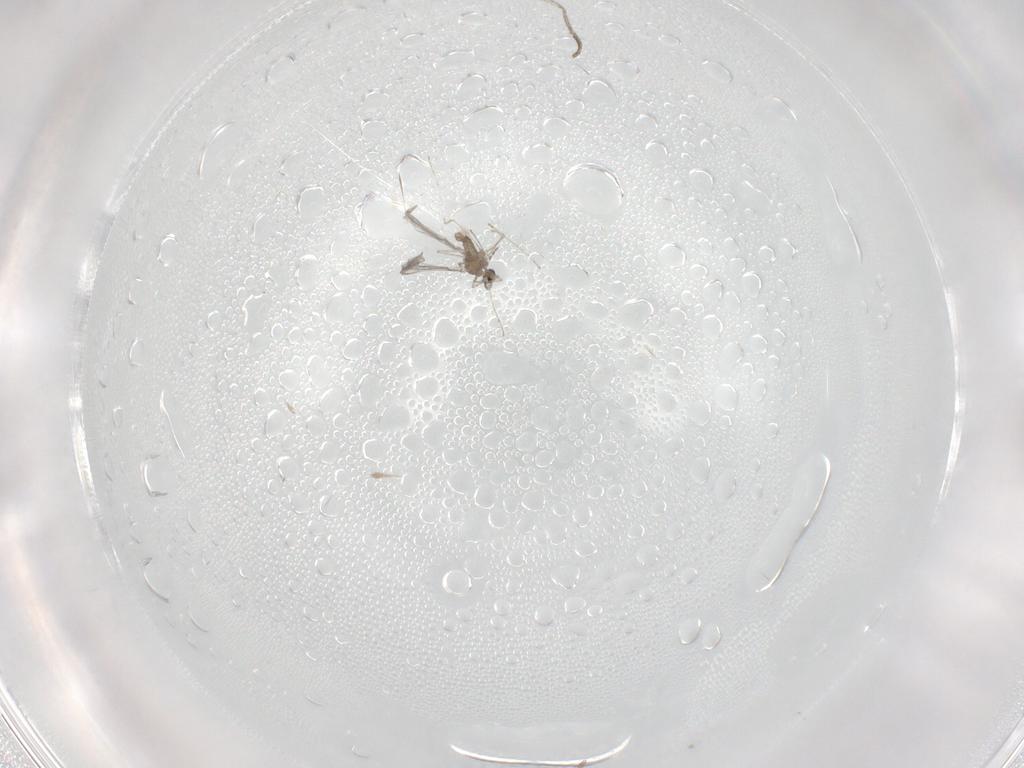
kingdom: Animalia
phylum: Arthropoda
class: Insecta
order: Diptera
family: Cecidomyiidae
